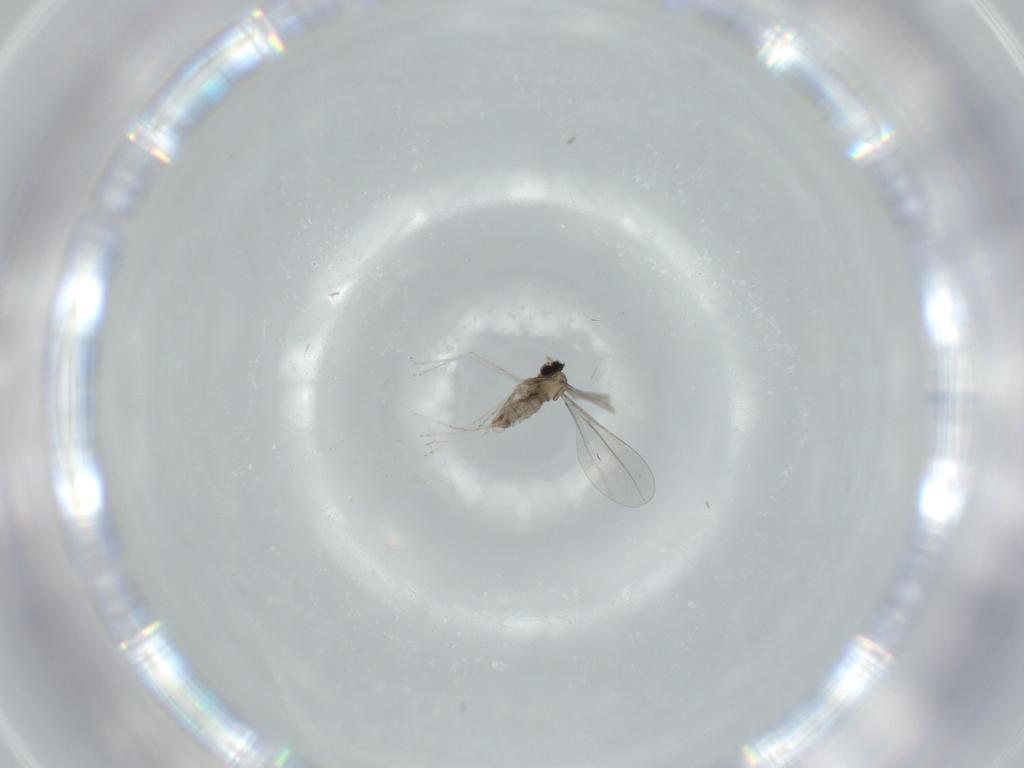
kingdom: Animalia
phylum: Arthropoda
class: Insecta
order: Diptera
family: Cecidomyiidae
